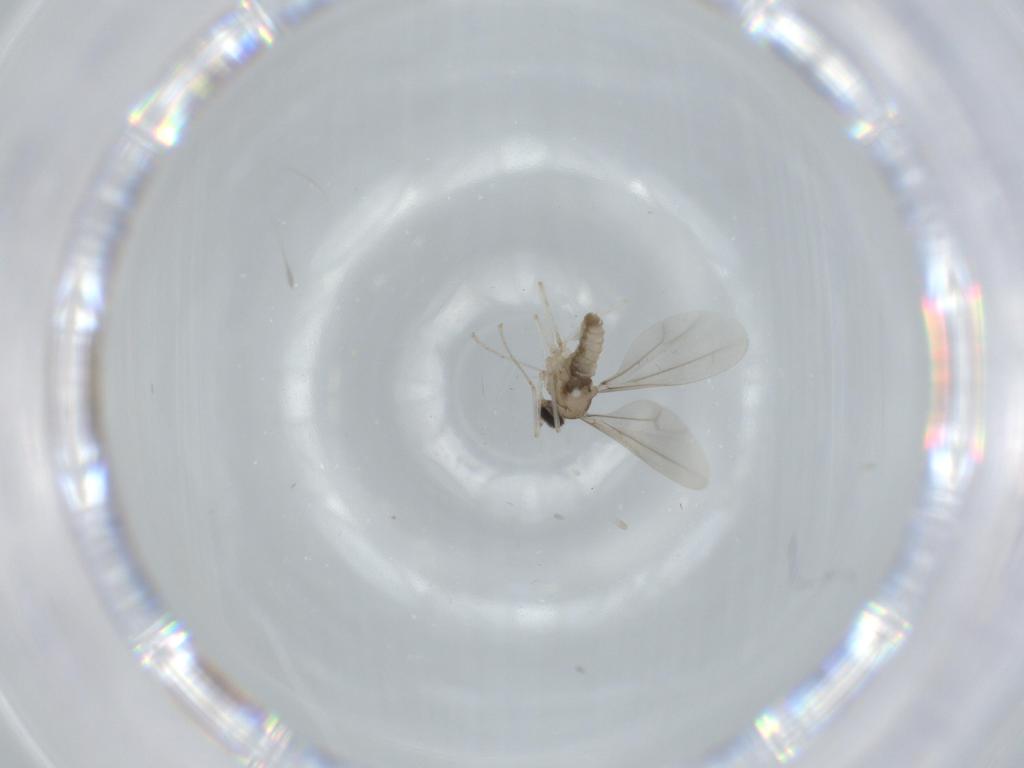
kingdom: Animalia
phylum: Arthropoda
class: Insecta
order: Diptera
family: Cecidomyiidae
